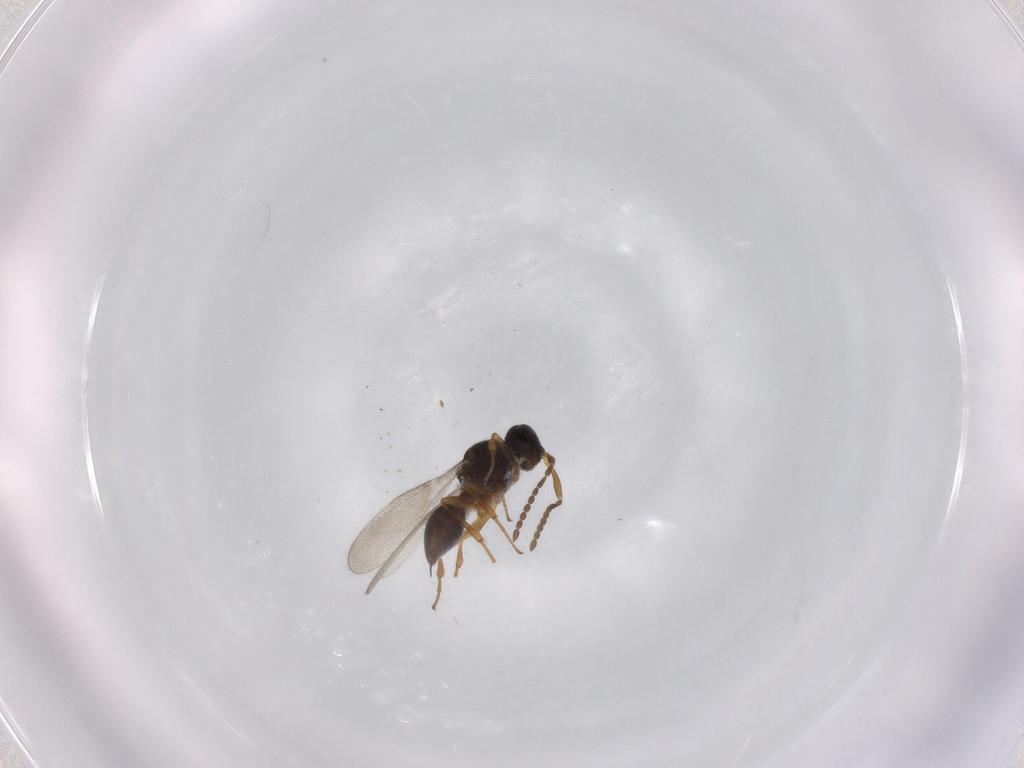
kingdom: Animalia
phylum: Arthropoda
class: Insecta
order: Diptera
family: Mythicomyiidae
